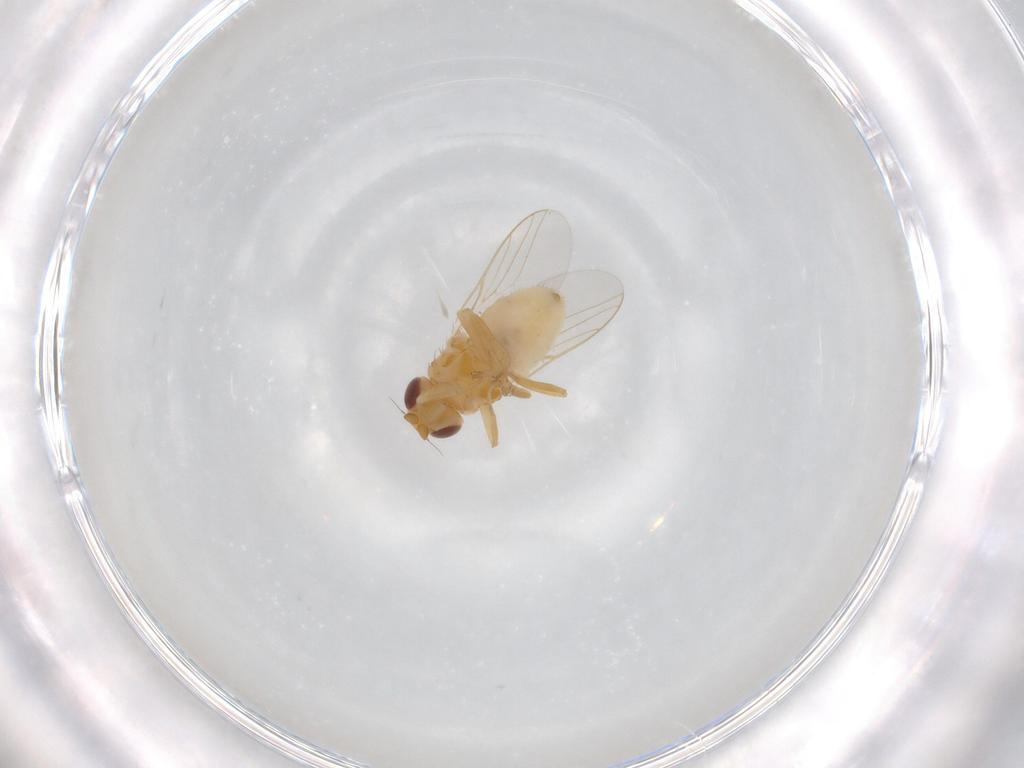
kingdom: Animalia
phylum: Arthropoda
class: Insecta
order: Diptera
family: Chloropidae
